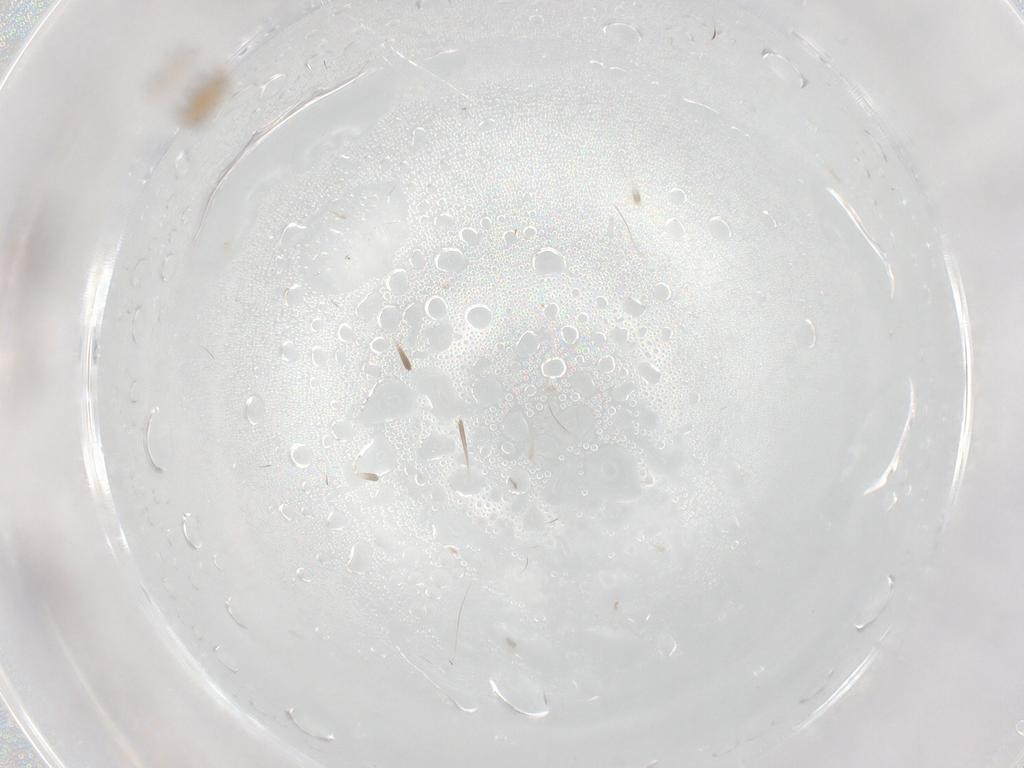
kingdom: Animalia
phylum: Arthropoda
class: Insecta
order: Hymenoptera
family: Aphelinidae
